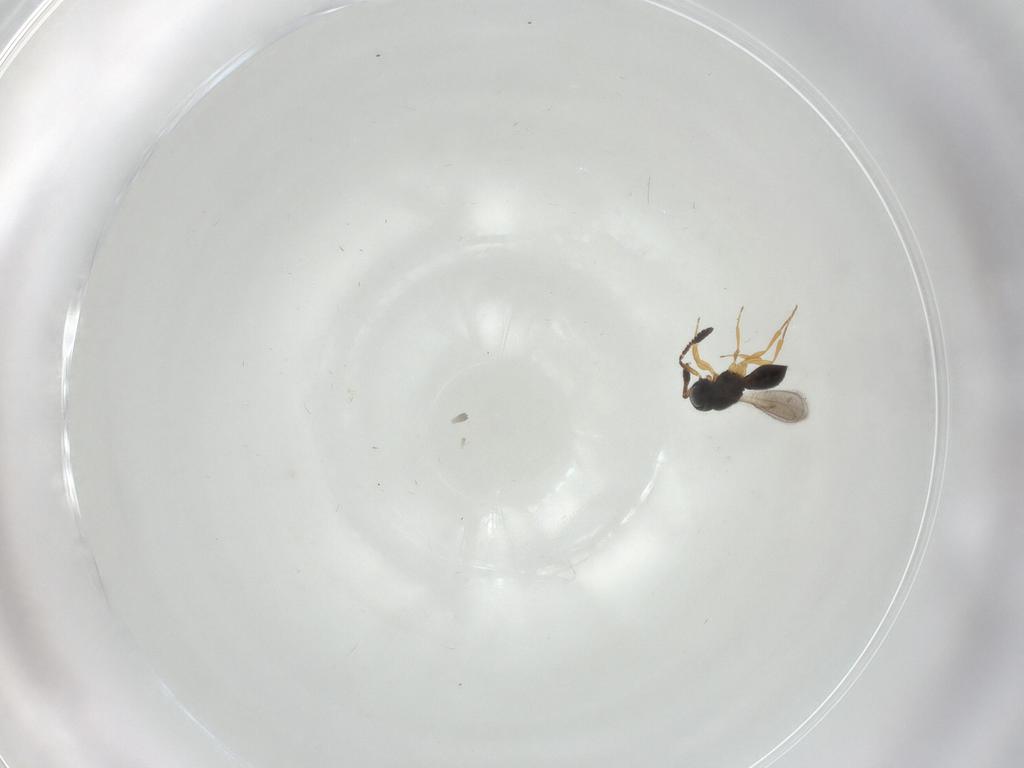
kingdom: Animalia
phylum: Arthropoda
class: Insecta
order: Hymenoptera
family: Scelionidae
